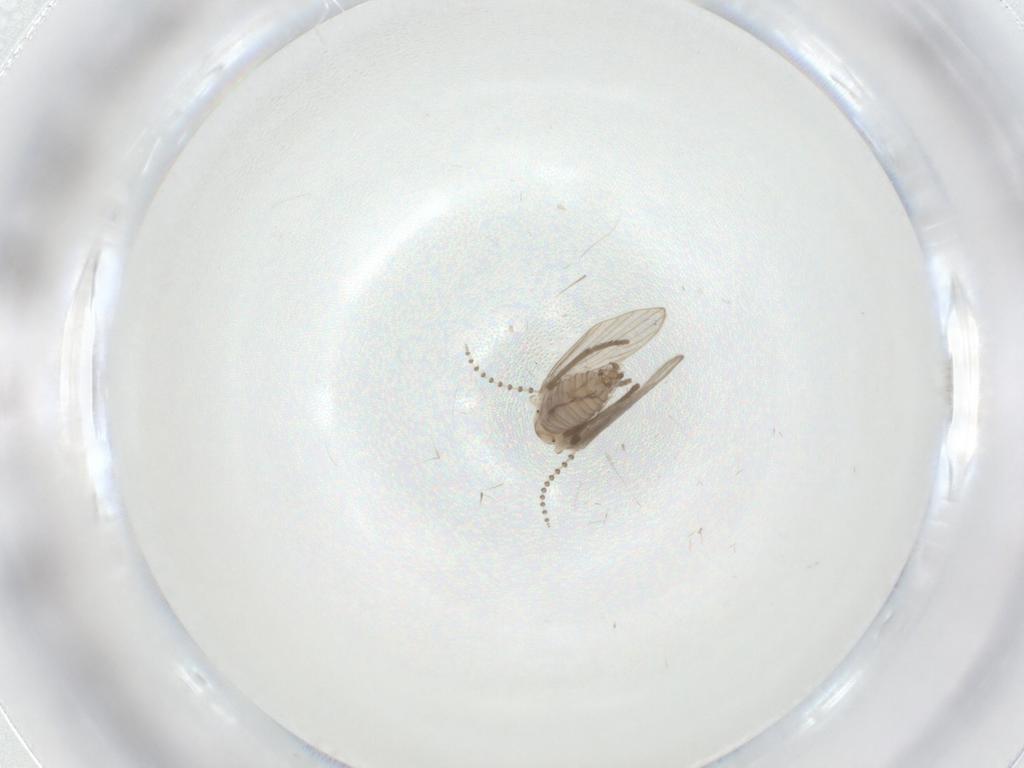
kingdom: Animalia
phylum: Arthropoda
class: Insecta
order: Diptera
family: Psychodidae
